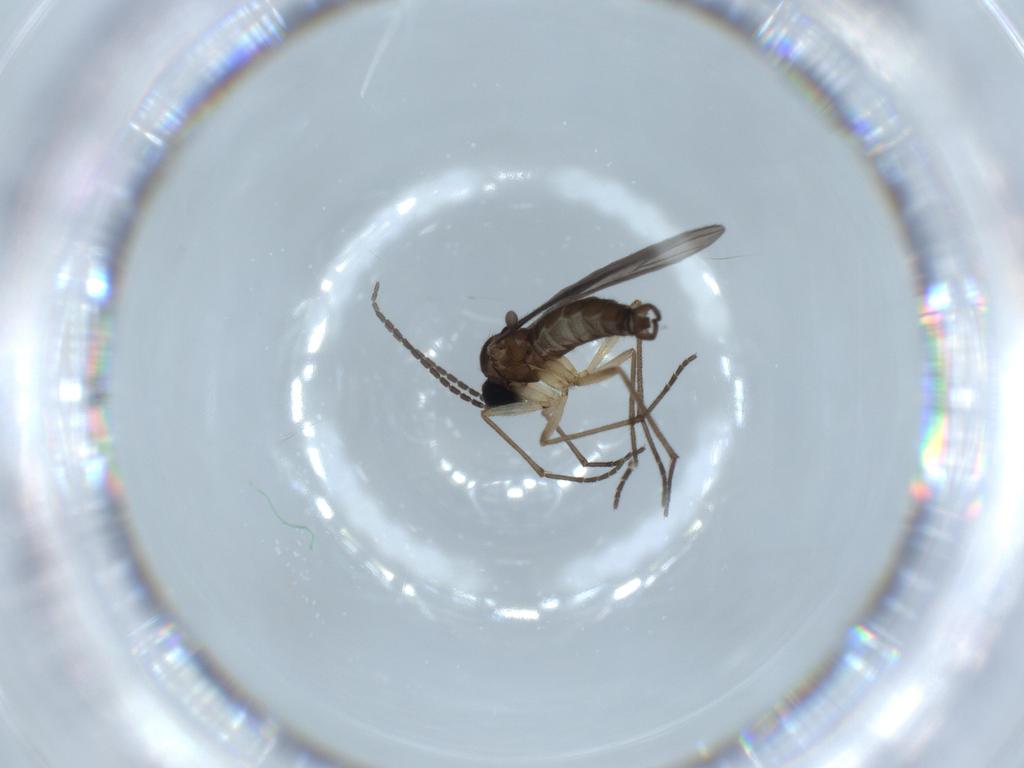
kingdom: Animalia
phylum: Arthropoda
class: Insecta
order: Diptera
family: Sciaridae
